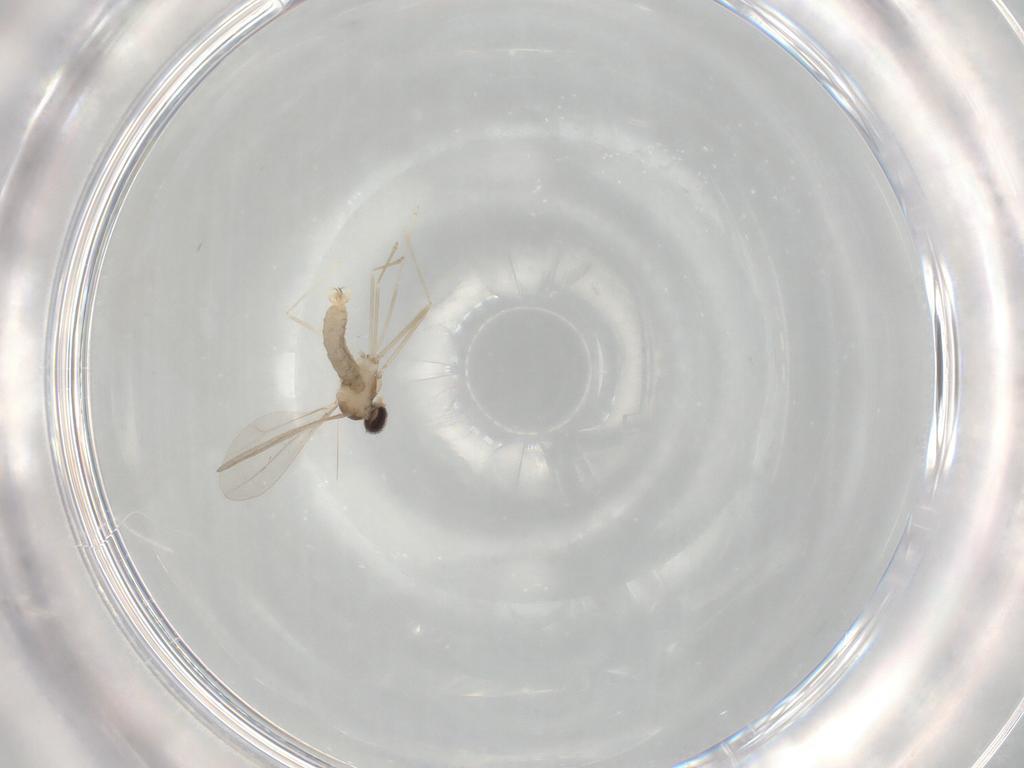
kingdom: Animalia
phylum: Arthropoda
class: Insecta
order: Diptera
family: Cecidomyiidae
